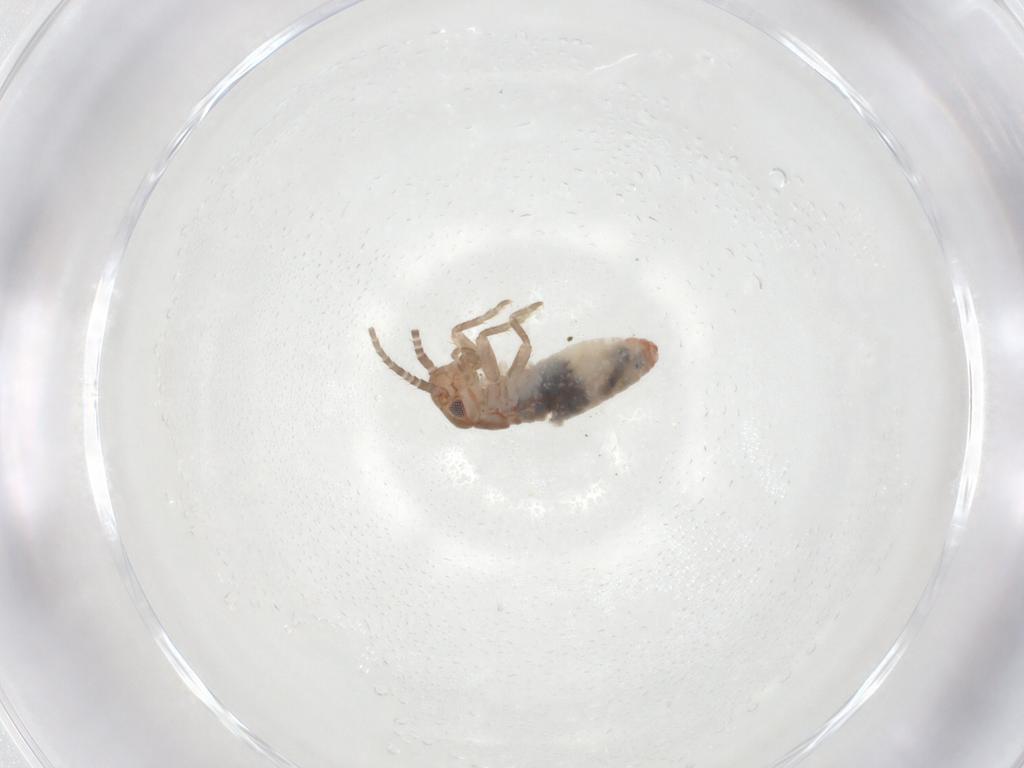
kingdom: Animalia
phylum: Arthropoda
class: Insecta
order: Orthoptera
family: Gryllidae
